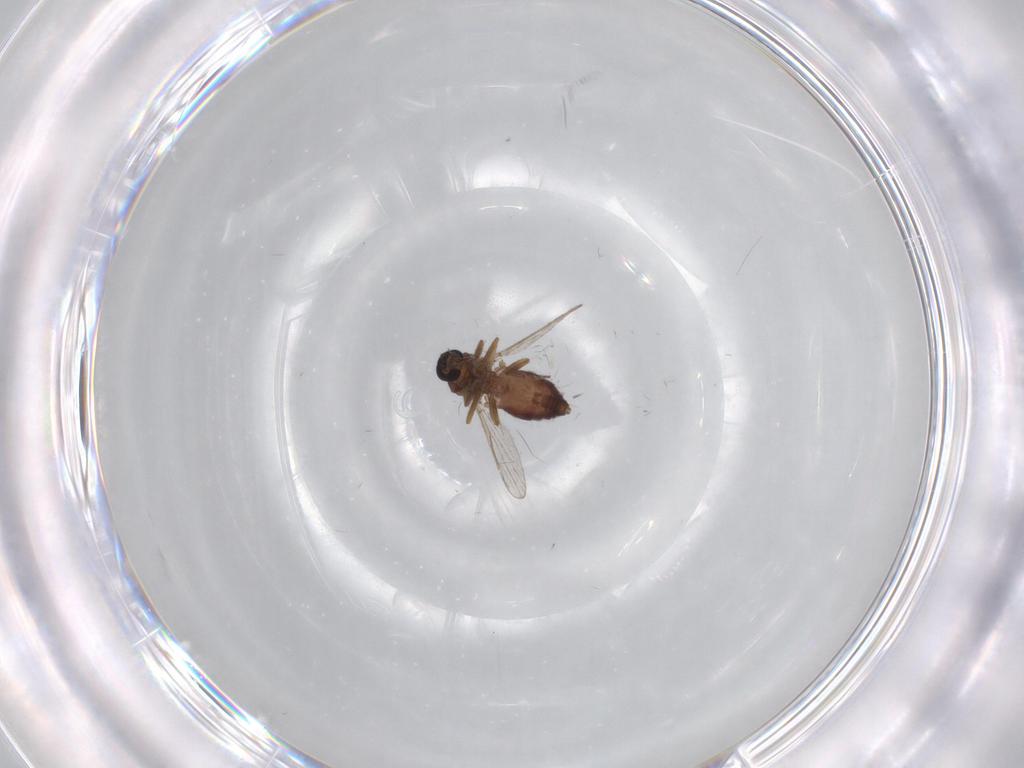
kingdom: Animalia
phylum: Arthropoda
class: Insecta
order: Diptera
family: Ceratopogonidae
